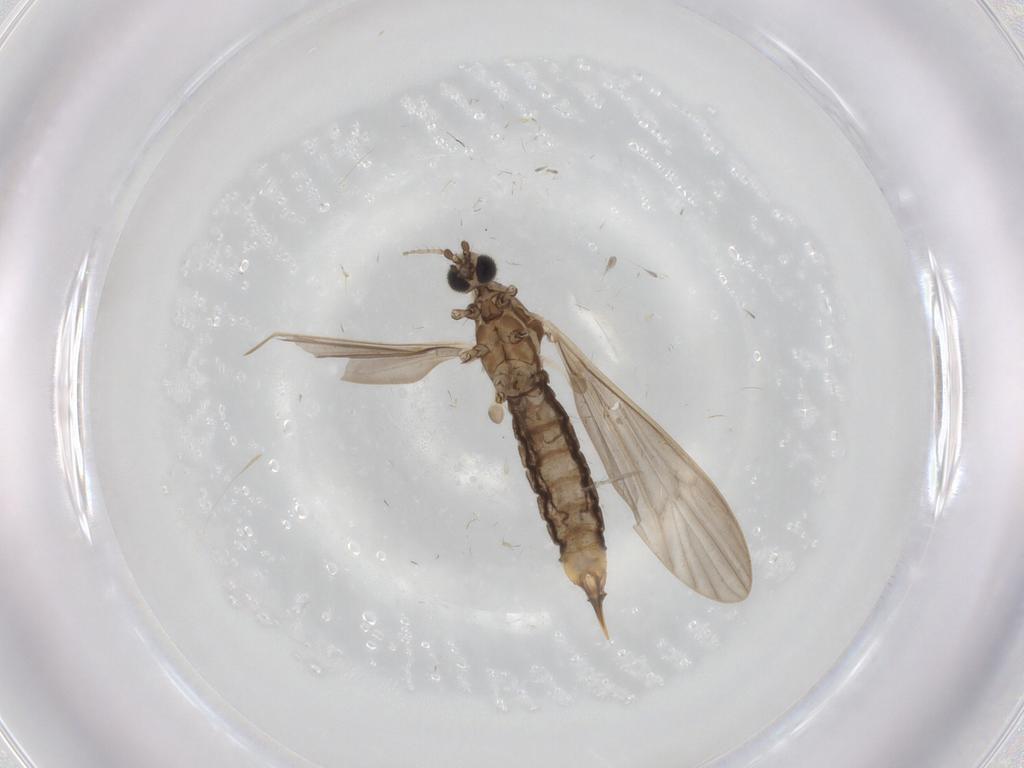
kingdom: Animalia
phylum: Arthropoda
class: Insecta
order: Diptera
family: Limoniidae
